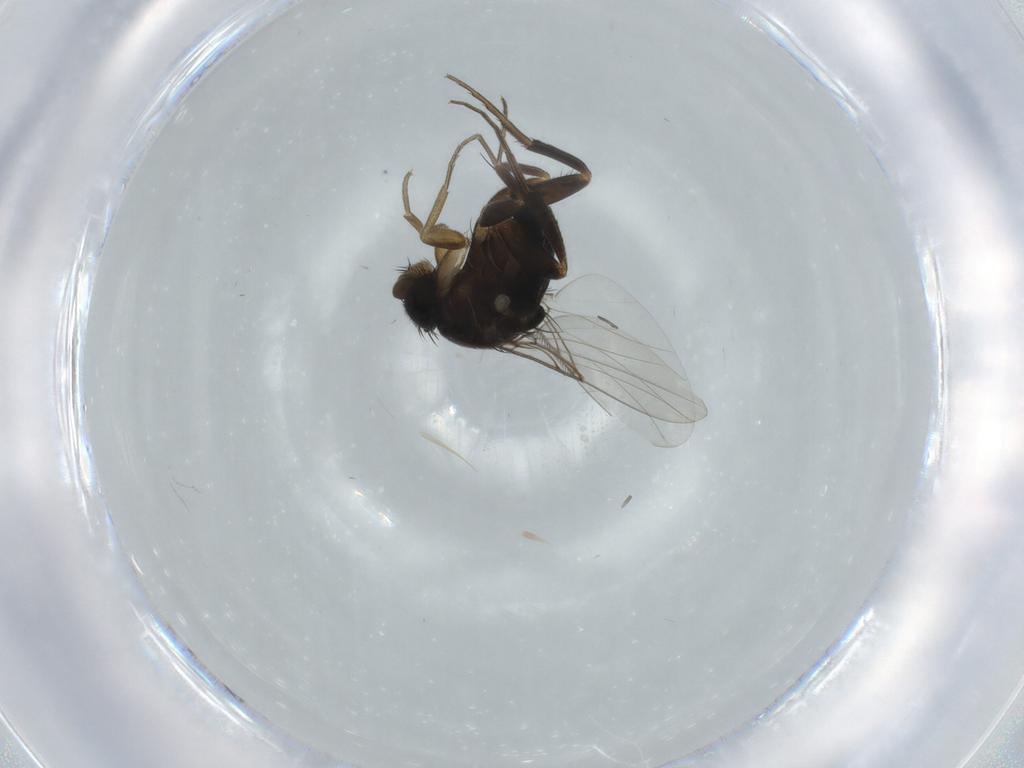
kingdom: Animalia
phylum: Arthropoda
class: Insecta
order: Diptera
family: Phoridae
